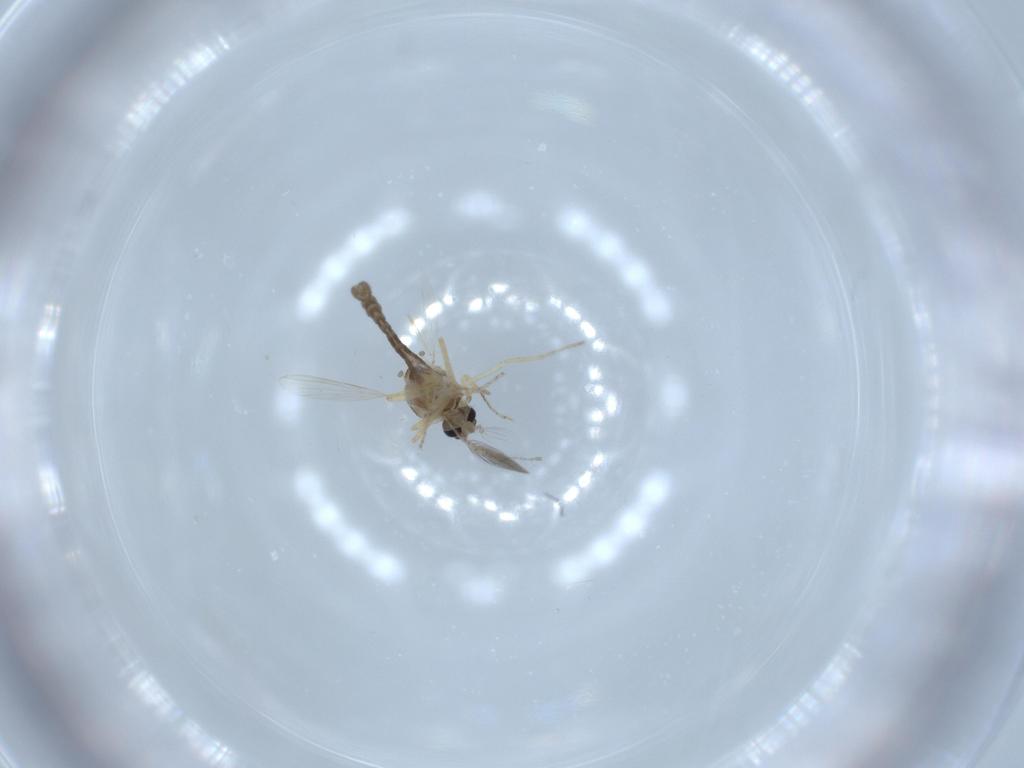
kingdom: Animalia
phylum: Arthropoda
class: Insecta
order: Diptera
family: Ceratopogonidae
